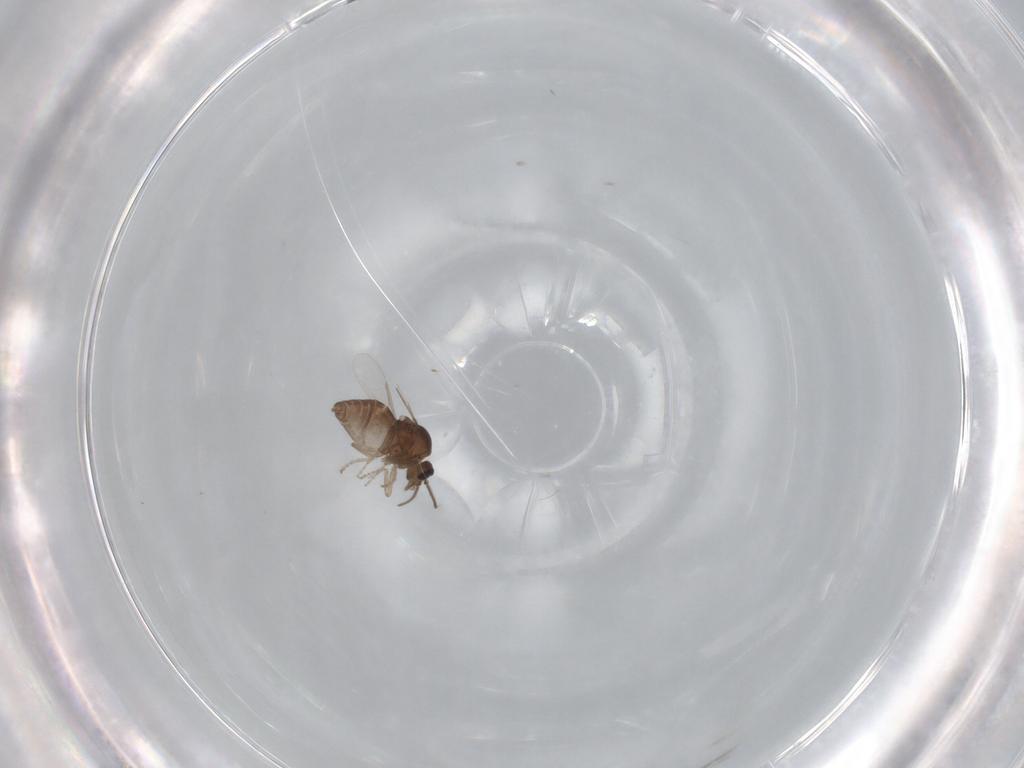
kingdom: Animalia
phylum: Arthropoda
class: Insecta
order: Diptera
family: Ceratopogonidae
